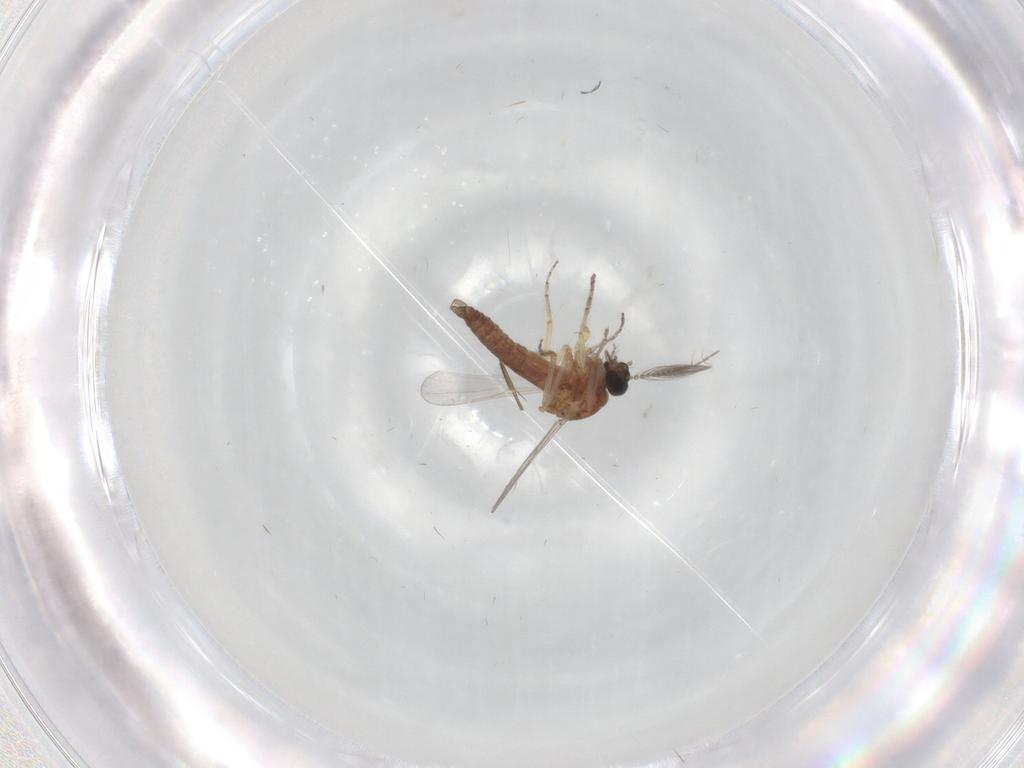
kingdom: Animalia
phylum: Arthropoda
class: Insecta
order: Diptera
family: Ceratopogonidae
